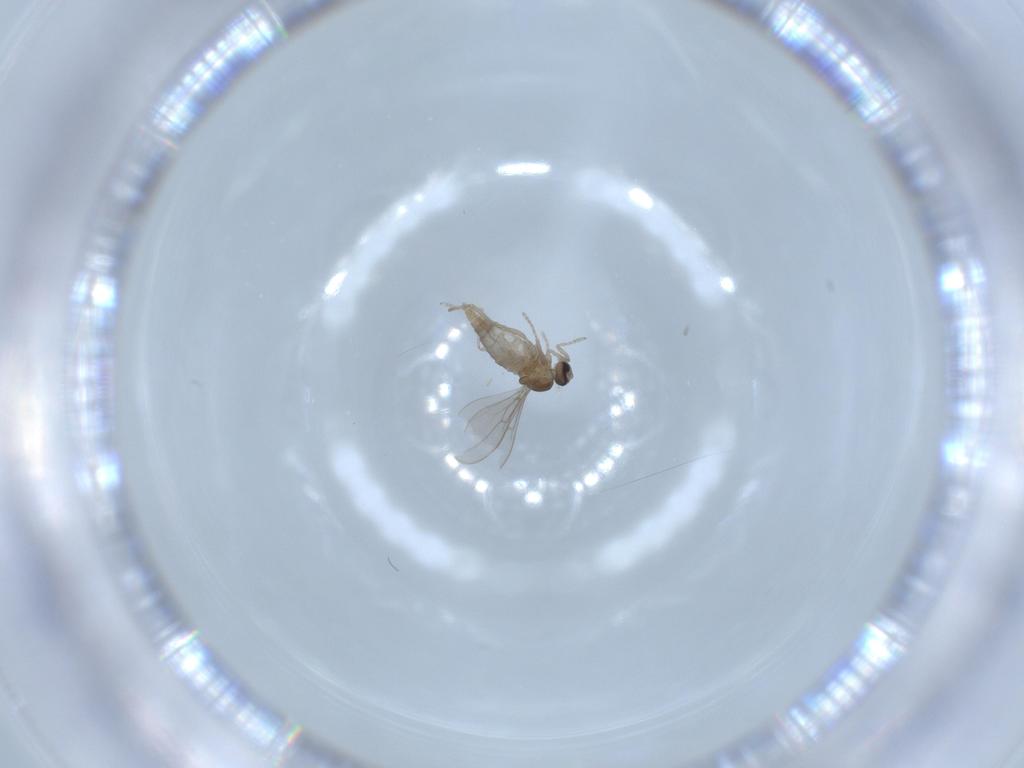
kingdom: Animalia
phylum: Arthropoda
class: Insecta
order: Diptera
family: Cecidomyiidae
